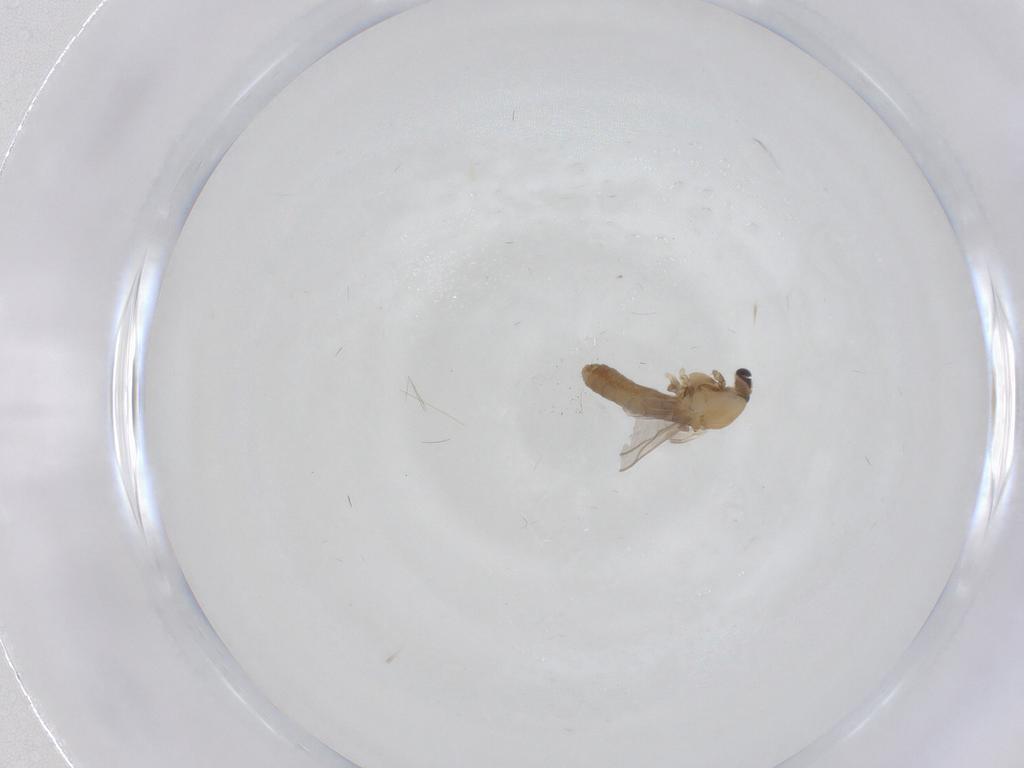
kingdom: Animalia
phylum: Arthropoda
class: Insecta
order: Diptera
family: Chironomidae
